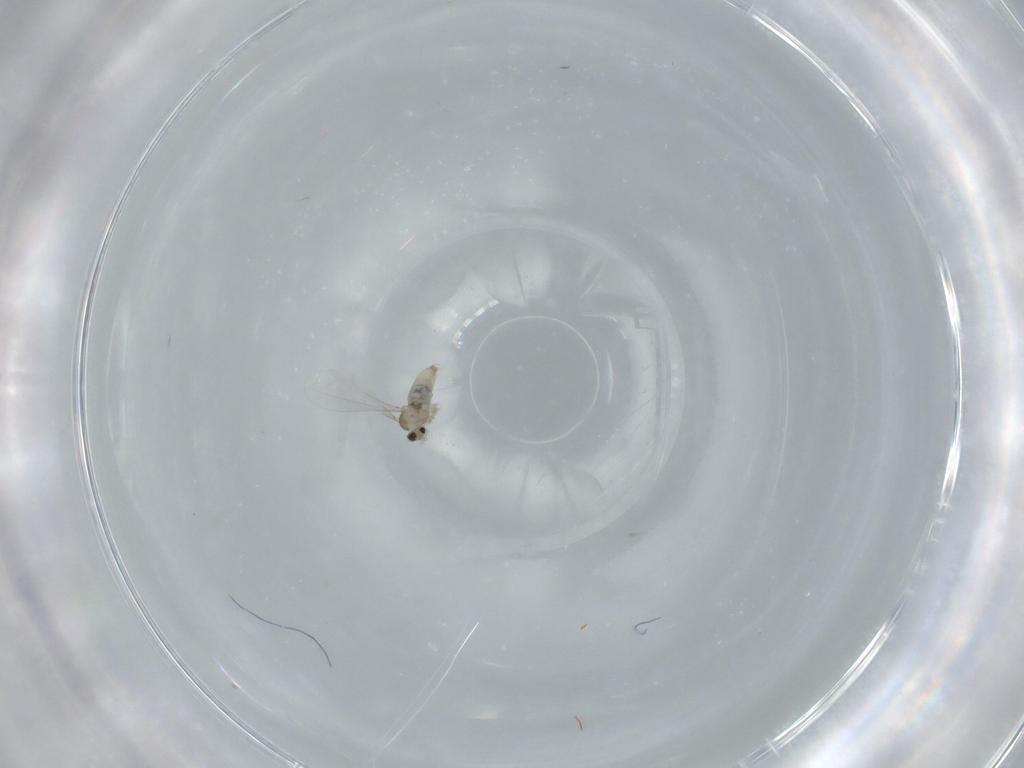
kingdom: Animalia
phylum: Arthropoda
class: Insecta
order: Diptera
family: Cecidomyiidae
